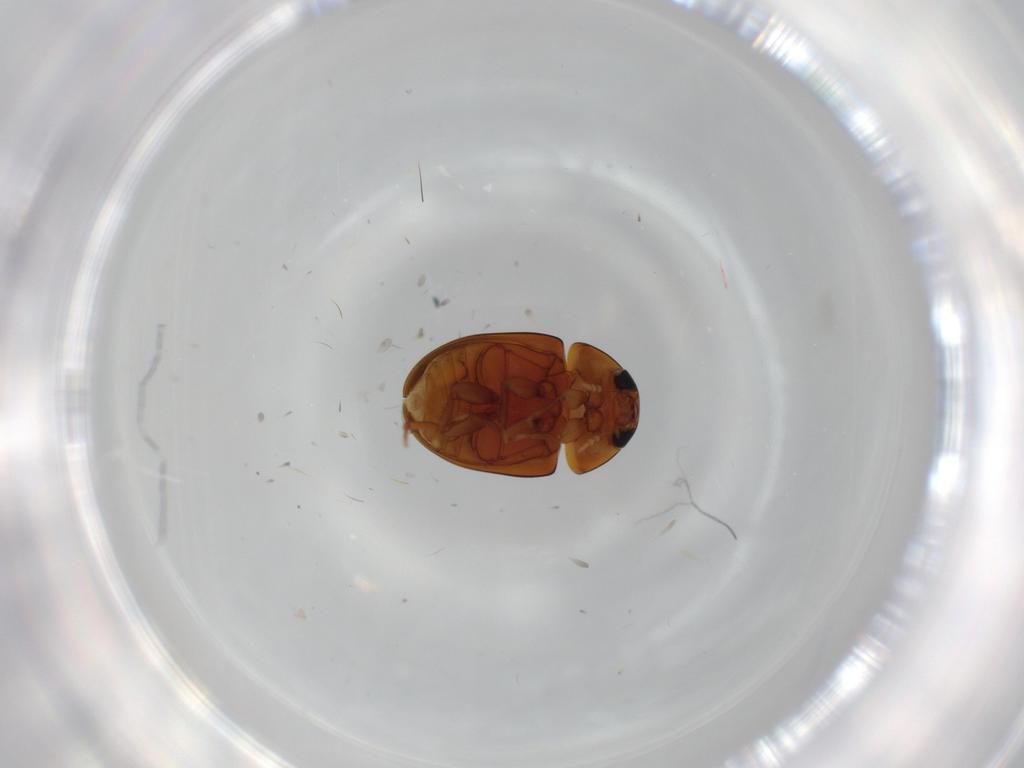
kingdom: Animalia
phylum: Arthropoda
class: Insecta
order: Coleoptera
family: Phalacridae
